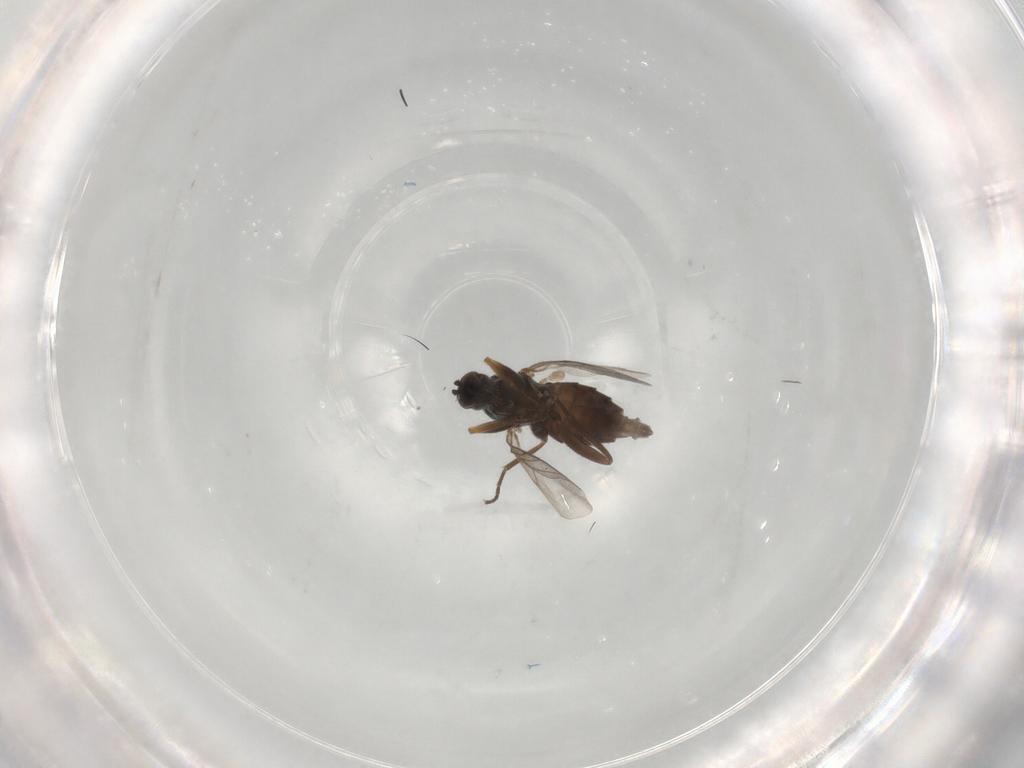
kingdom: Animalia
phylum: Arthropoda
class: Insecta
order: Diptera
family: Hybotidae
